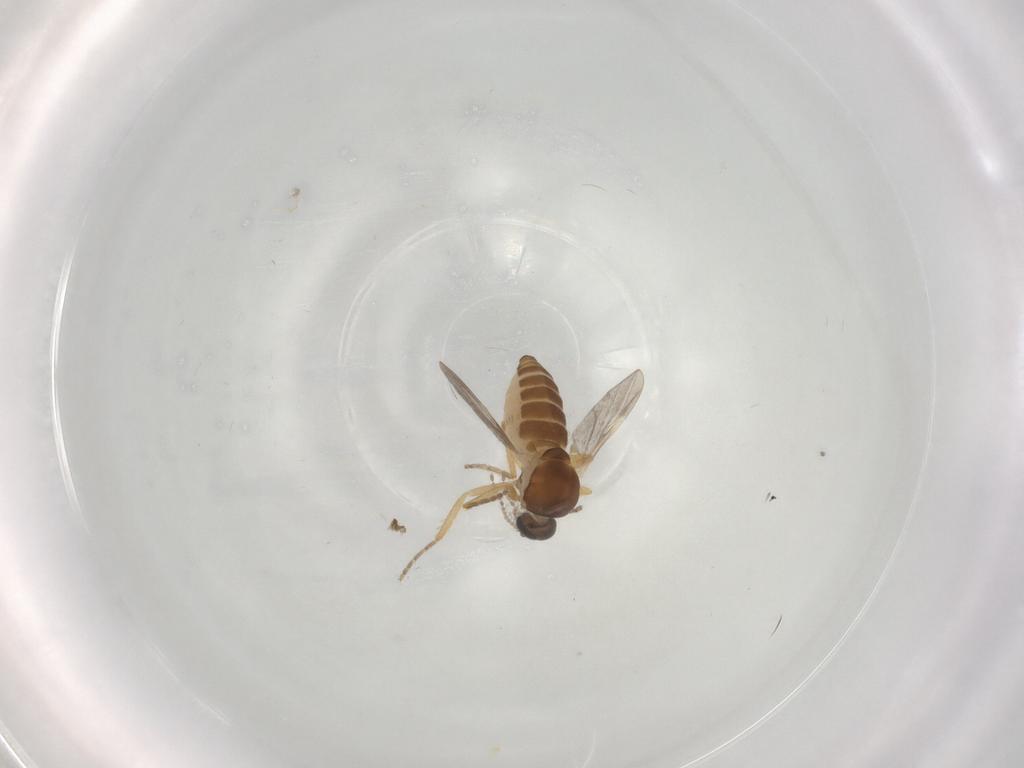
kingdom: Animalia
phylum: Arthropoda
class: Insecta
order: Diptera
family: Ceratopogonidae
